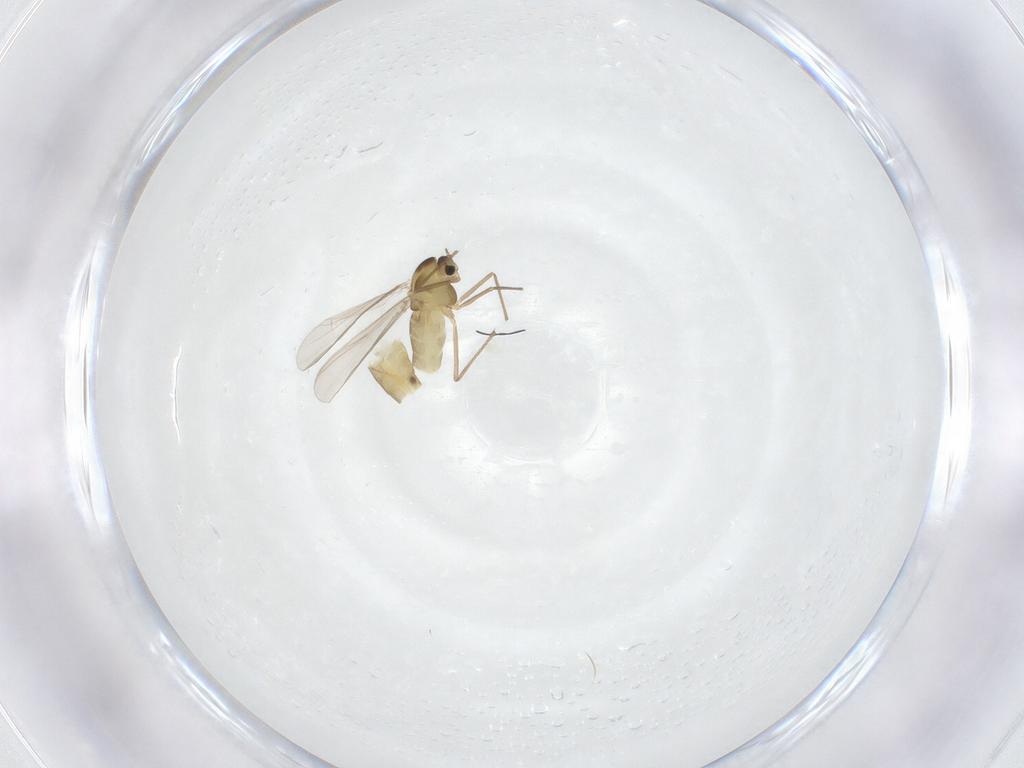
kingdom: Animalia
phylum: Arthropoda
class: Insecta
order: Diptera
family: Chironomidae
